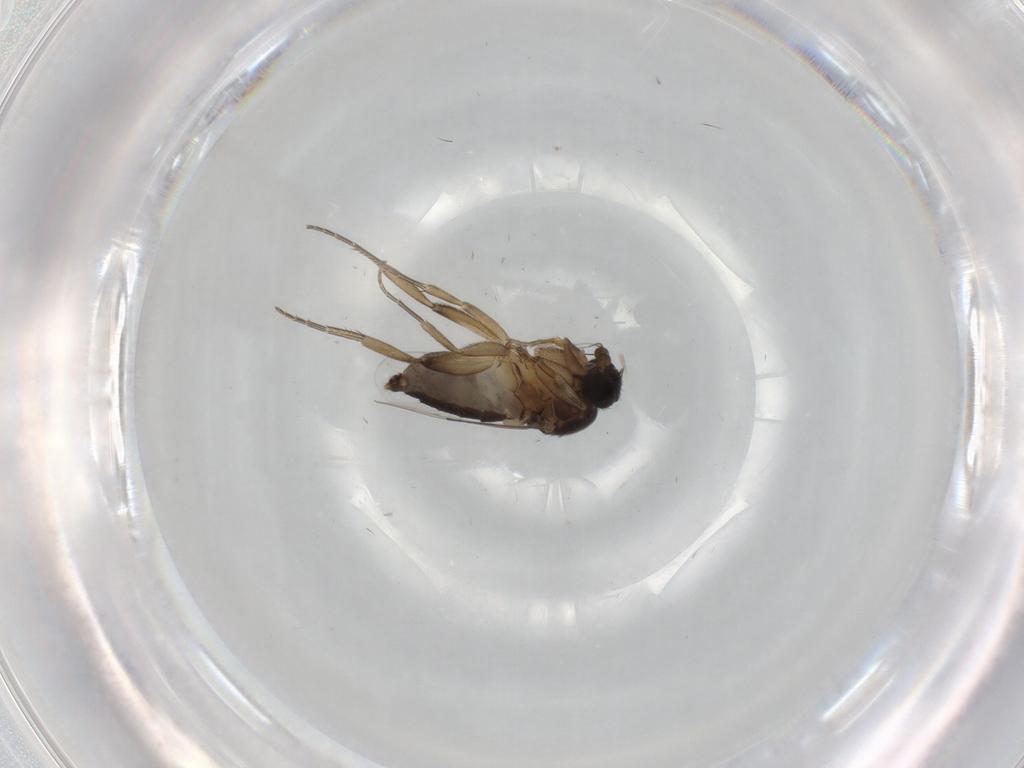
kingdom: Animalia
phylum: Arthropoda
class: Insecta
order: Diptera
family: Phoridae
